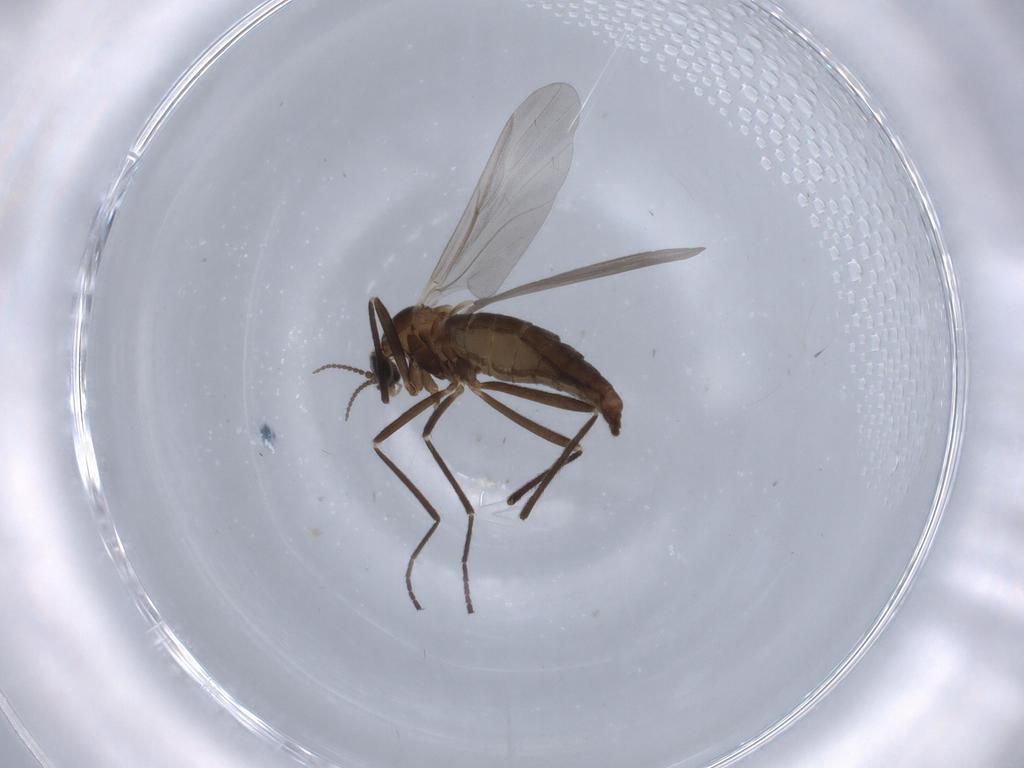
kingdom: Animalia
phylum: Arthropoda
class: Insecta
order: Diptera
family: Cecidomyiidae
